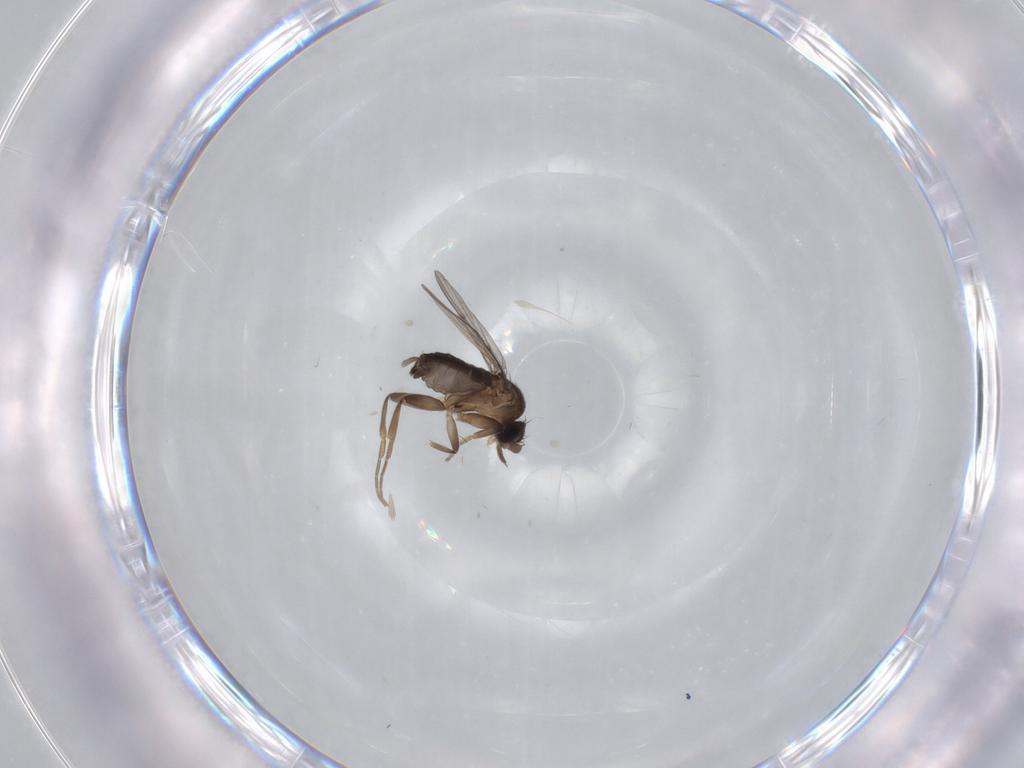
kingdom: Animalia
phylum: Arthropoda
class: Insecta
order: Diptera
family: Phoridae
